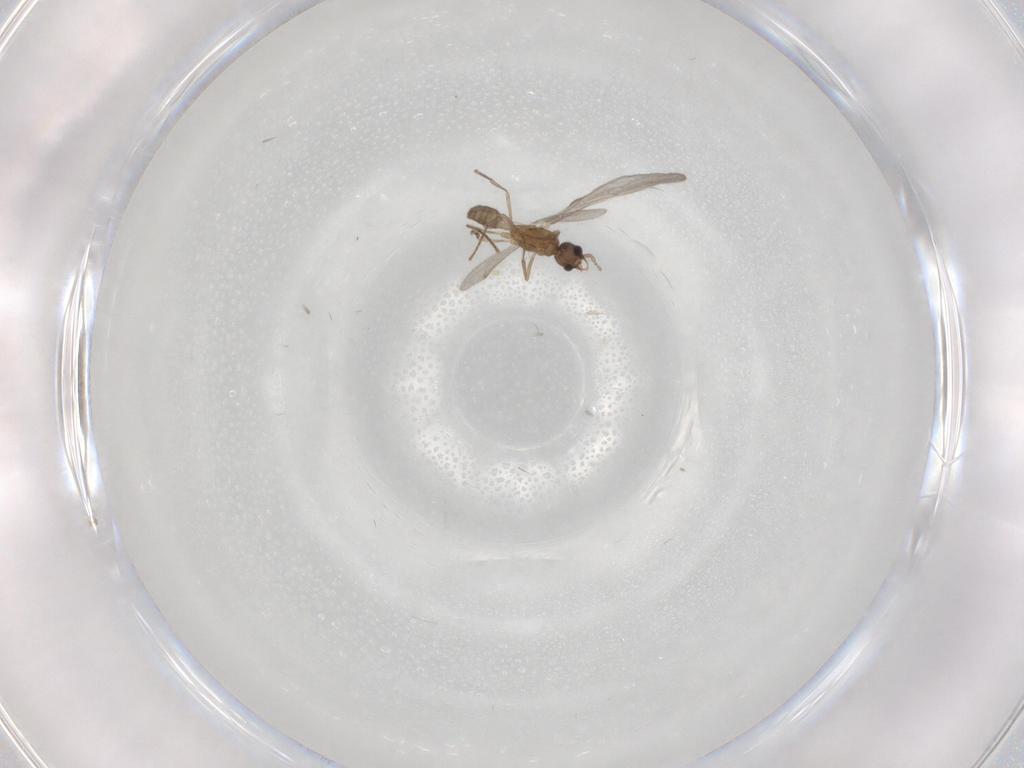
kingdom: Animalia
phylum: Arthropoda
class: Insecta
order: Hymenoptera
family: Formicidae
